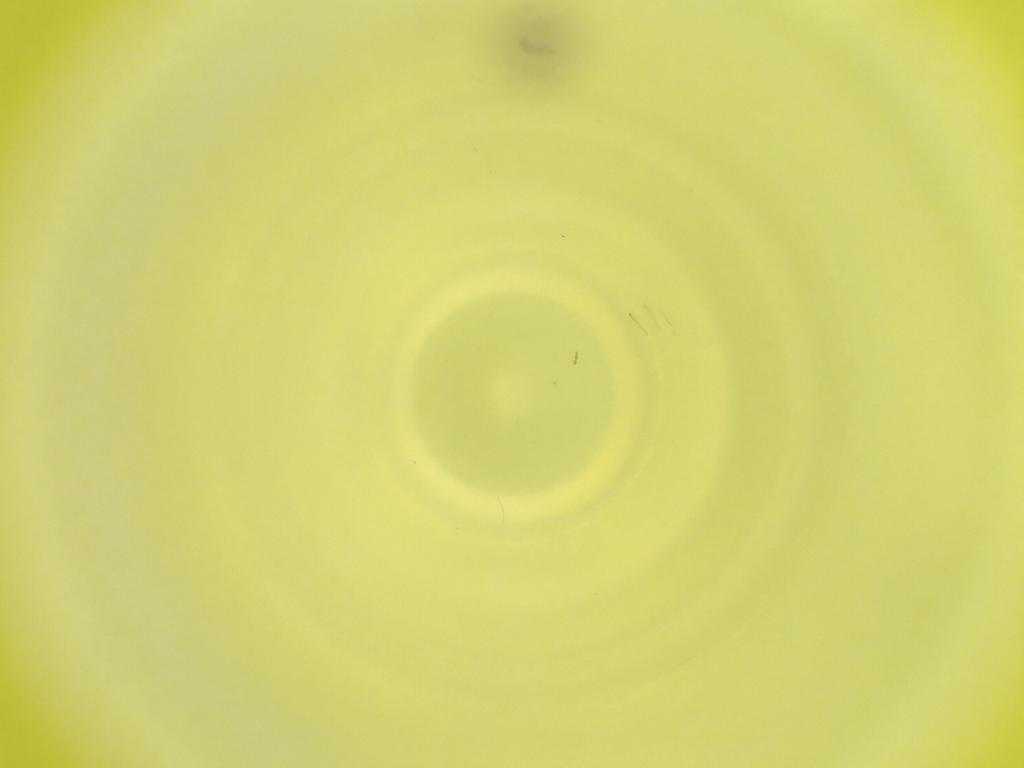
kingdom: Animalia
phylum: Arthropoda
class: Insecta
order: Diptera
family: Cecidomyiidae
